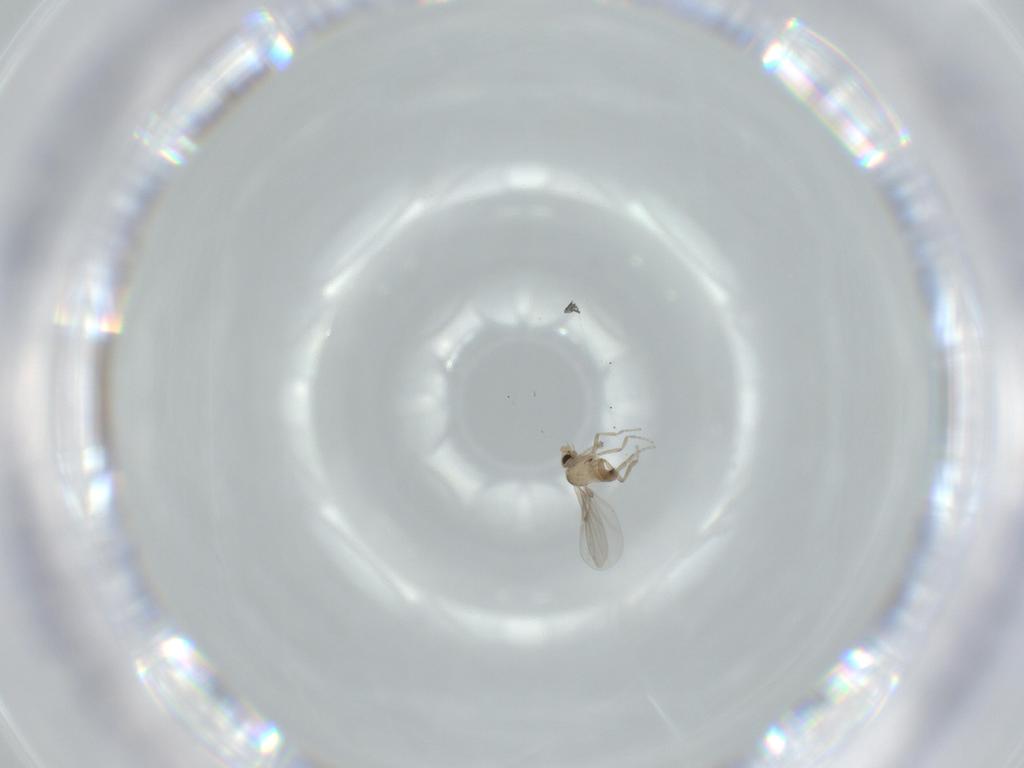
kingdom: Animalia
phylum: Arthropoda
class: Insecta
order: Diptera
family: Phoridae
